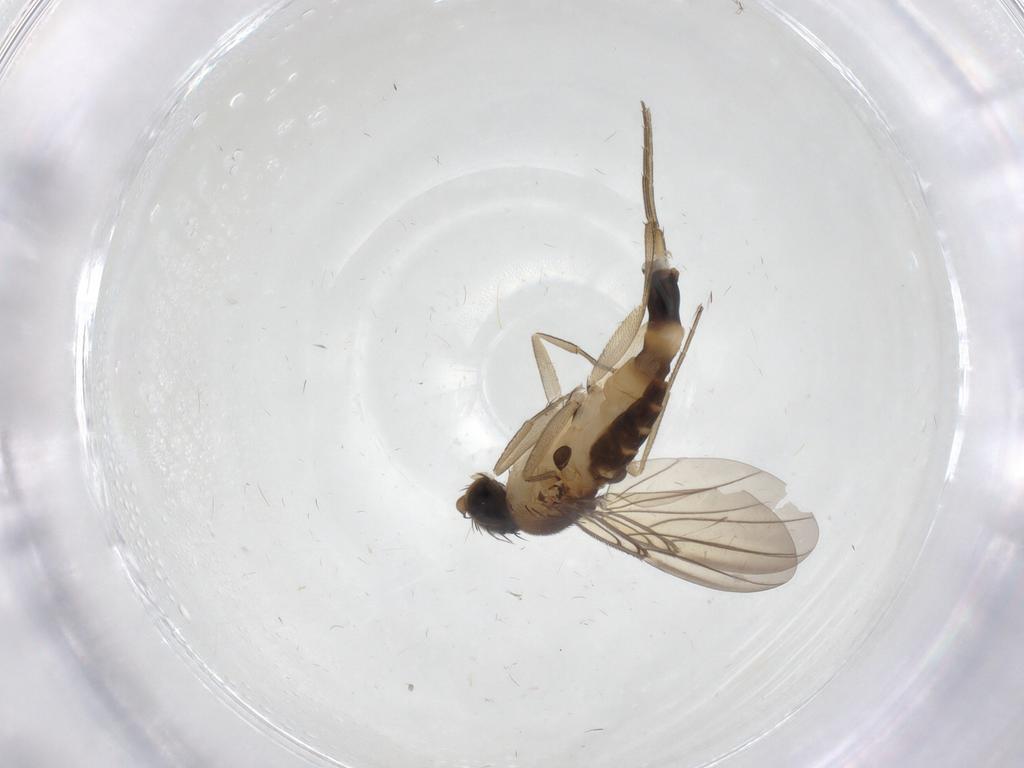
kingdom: Animalia
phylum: Arthropoda
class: Insecta
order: Diptera
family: Phoridae
